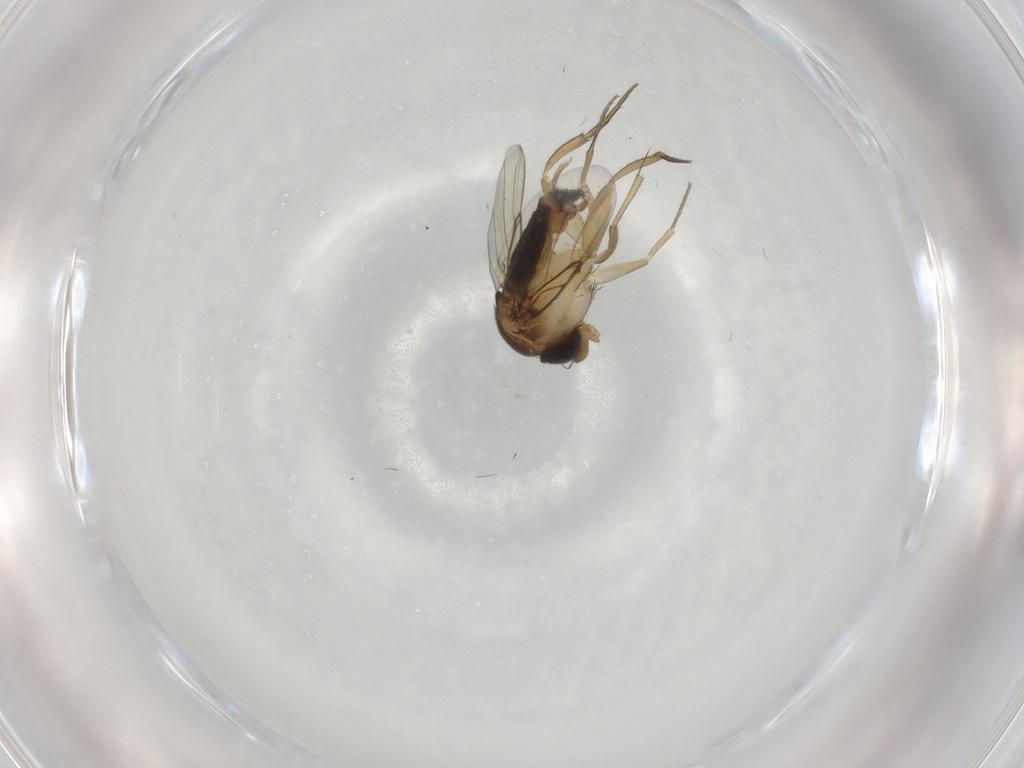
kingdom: Animalia
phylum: Arthropoda
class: Insecta
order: Diptera
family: Phoridae
